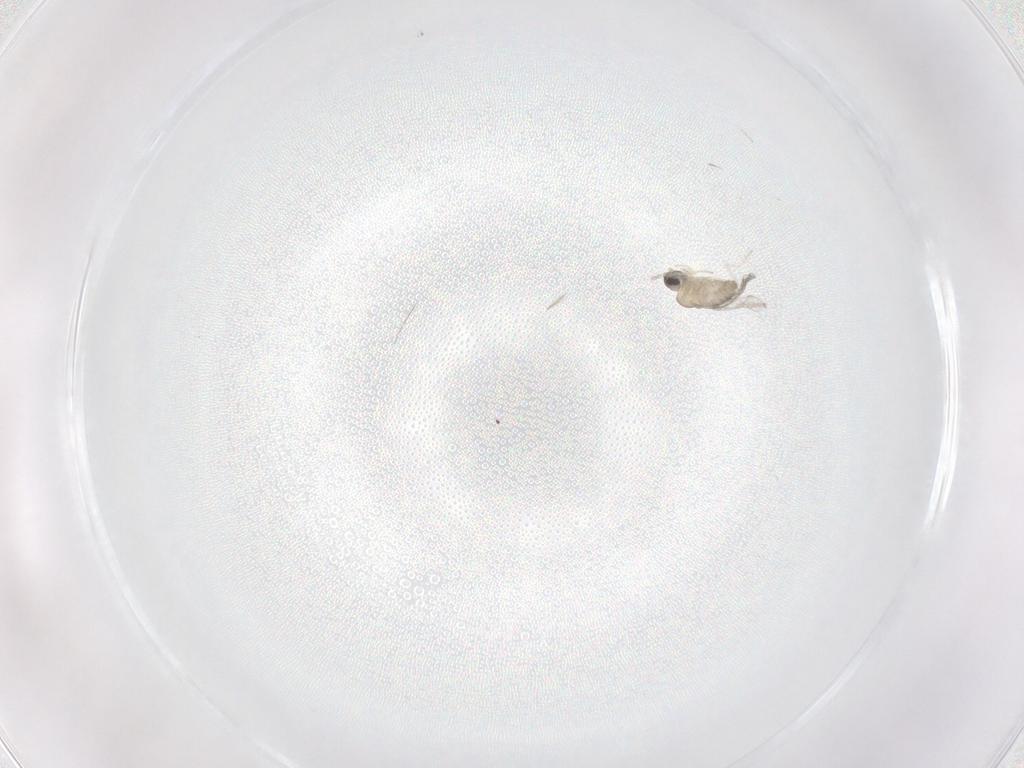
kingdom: Animalia
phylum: Arthropoda
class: Insecta
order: Diptera
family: Cecidomyiidae
